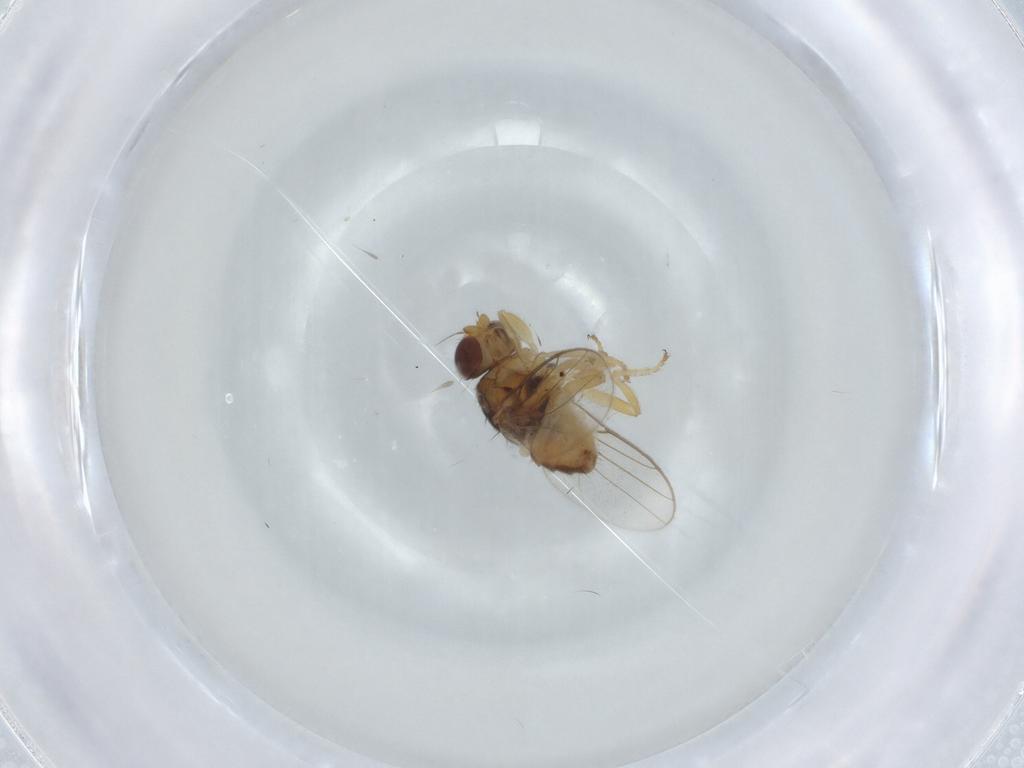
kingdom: Animalia
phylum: Arthropoda
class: Insecta
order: Diptera
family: Chloropidae
